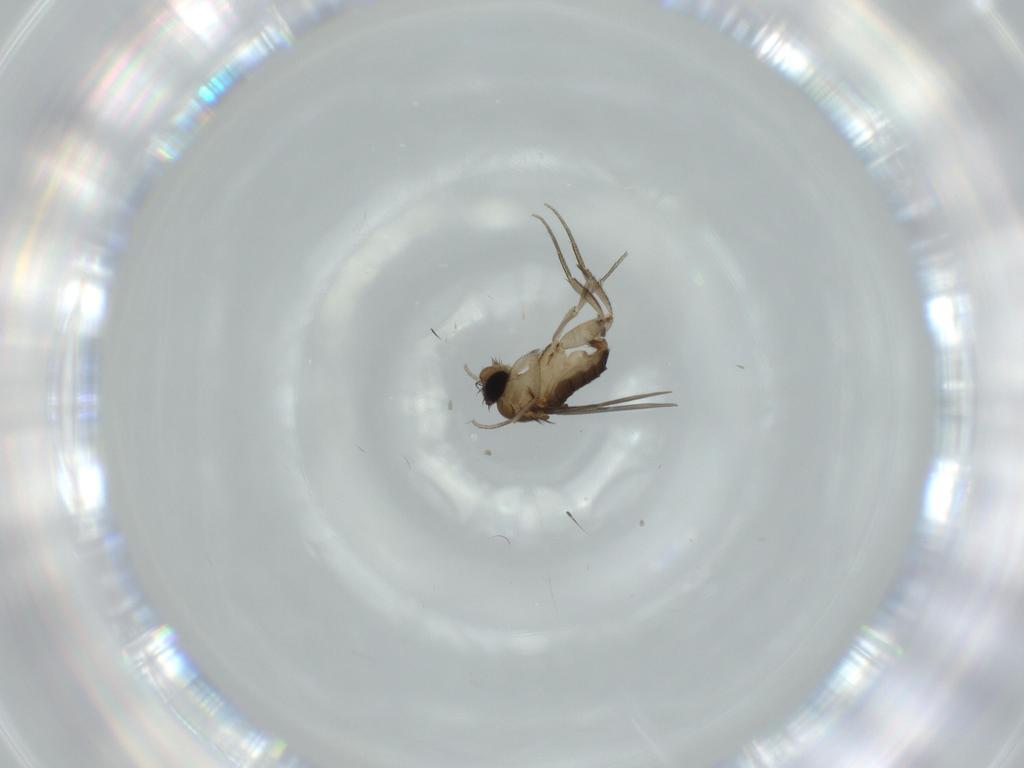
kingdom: Animalia
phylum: Arthropoda
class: Insecta
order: Diptera
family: Phoridae
